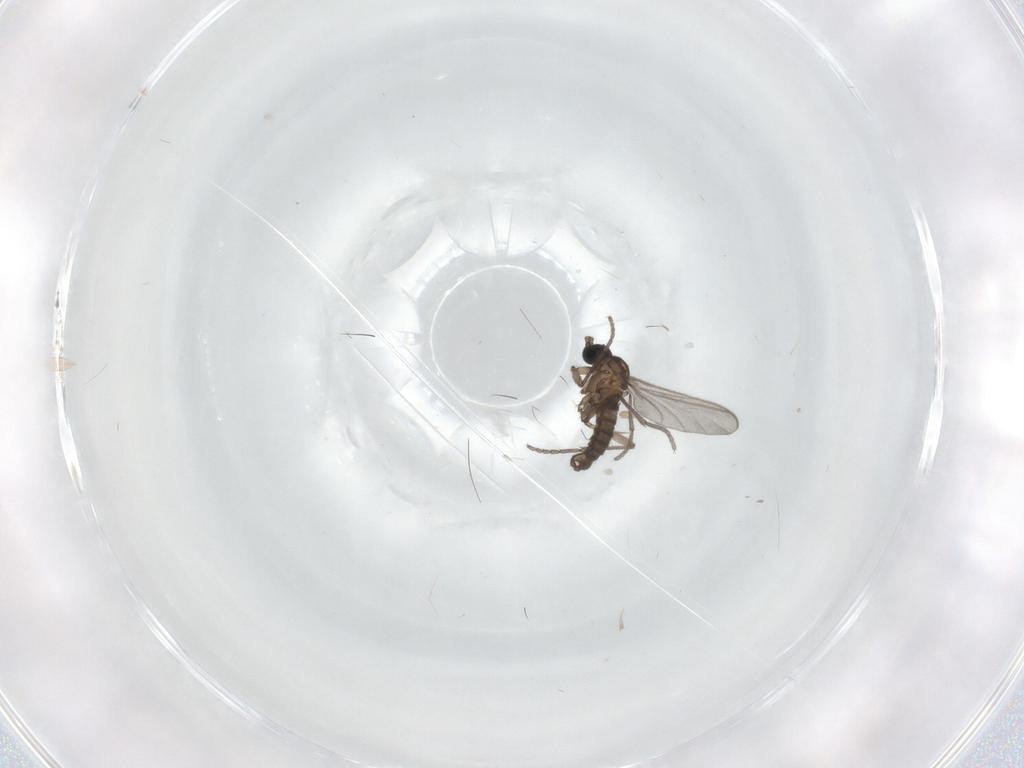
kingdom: Animalia
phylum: Arthropoda
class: Insecta
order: Diptera
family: Sciaridae
